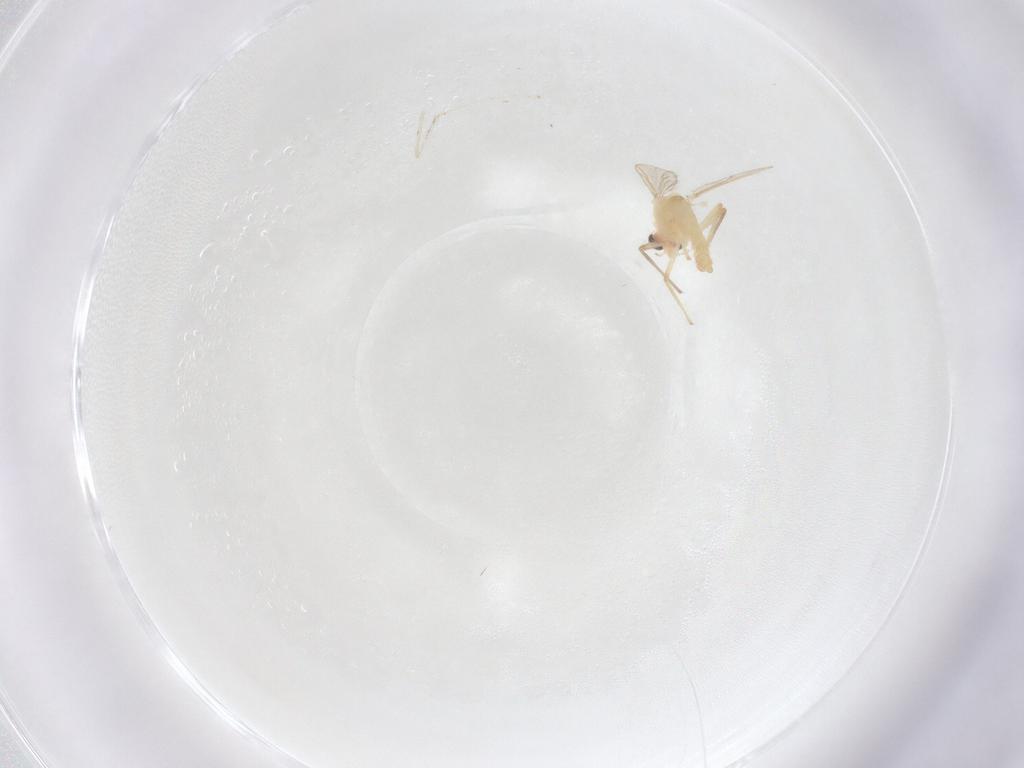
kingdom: Animalia
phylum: Arthropoda
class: Insecta
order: Diptera
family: Chironomidae
